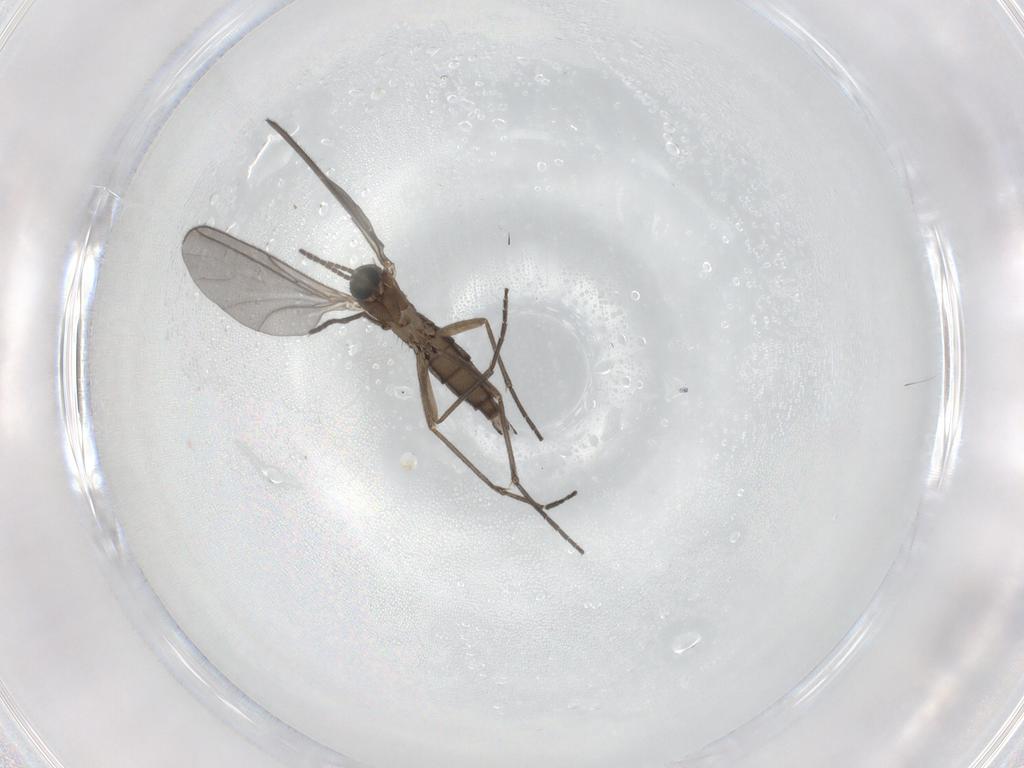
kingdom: Animalia
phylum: Arthropoda
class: Insecta
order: Diptera
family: Sciaridae
